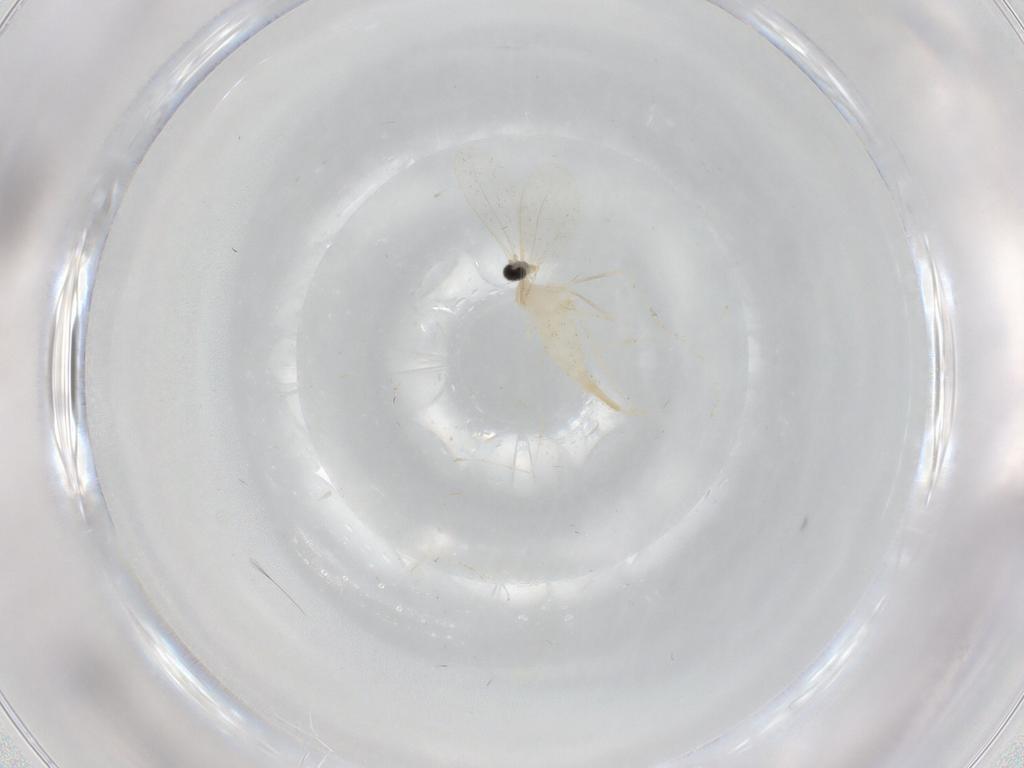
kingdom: Animalia
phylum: Arthropoda
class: Insecta
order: Diptera
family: Cecidomyiidae
